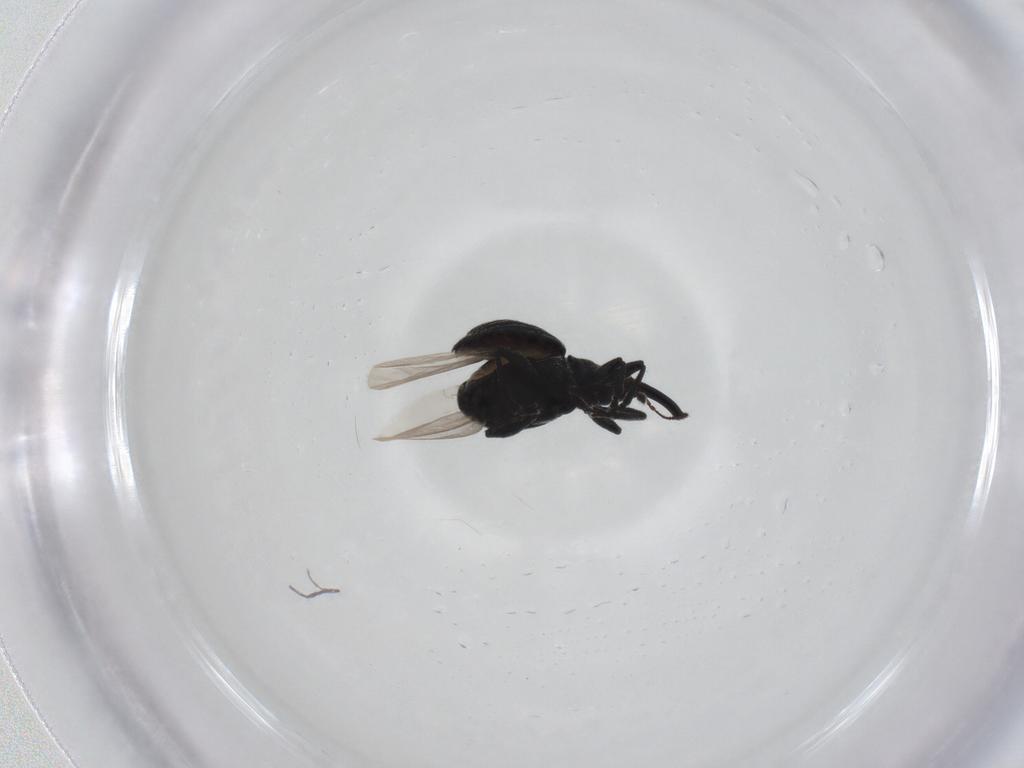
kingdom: Animalia
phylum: Arthropoda
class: Insecta
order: Coleoptera
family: Brentidae
